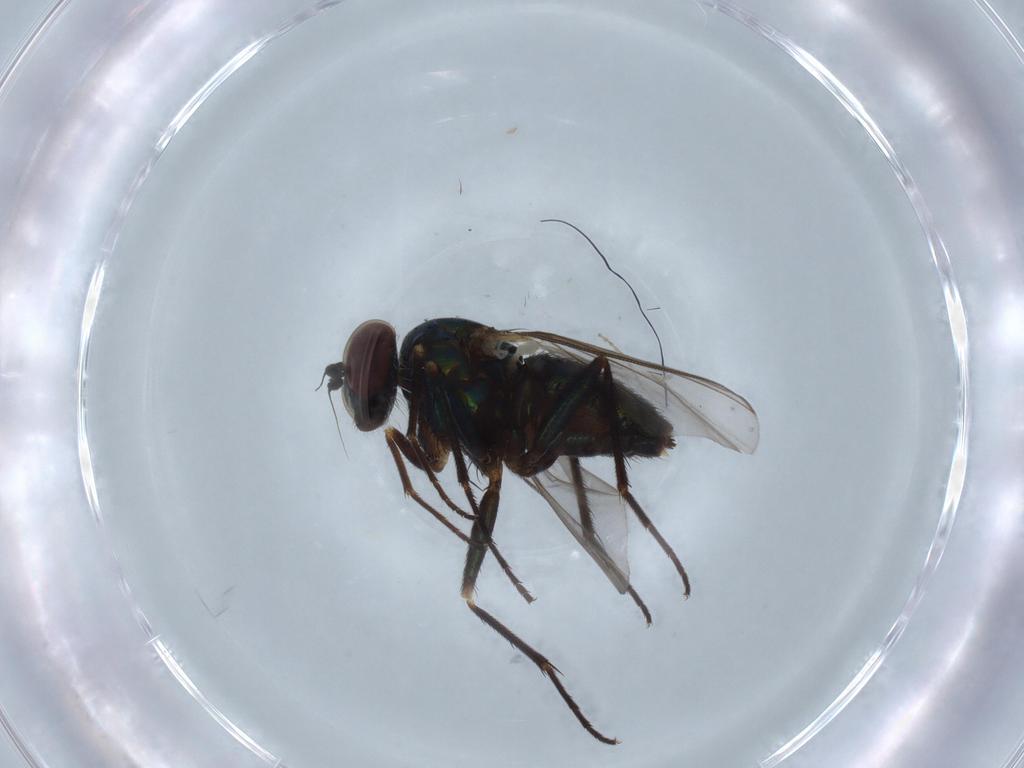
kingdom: Animalia
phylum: Arthropoda
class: Insecta
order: Diptera
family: Dolichopodidae
